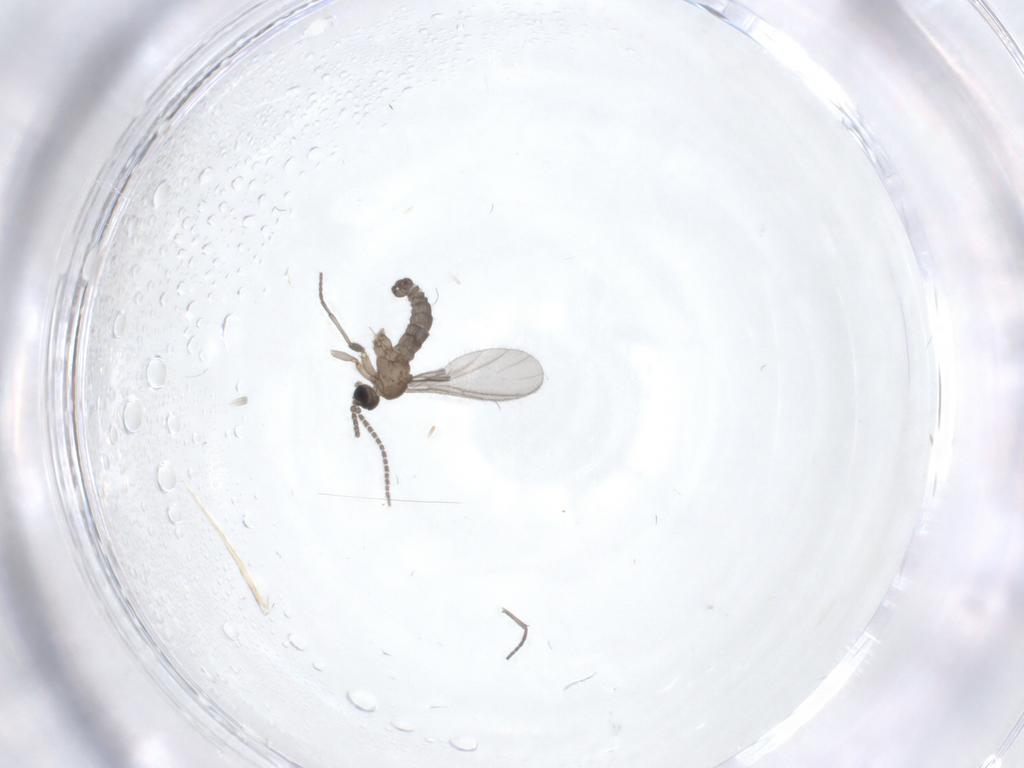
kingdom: Animalia
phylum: Arthropoda
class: Insecta
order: Diptera
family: Sciaridae
